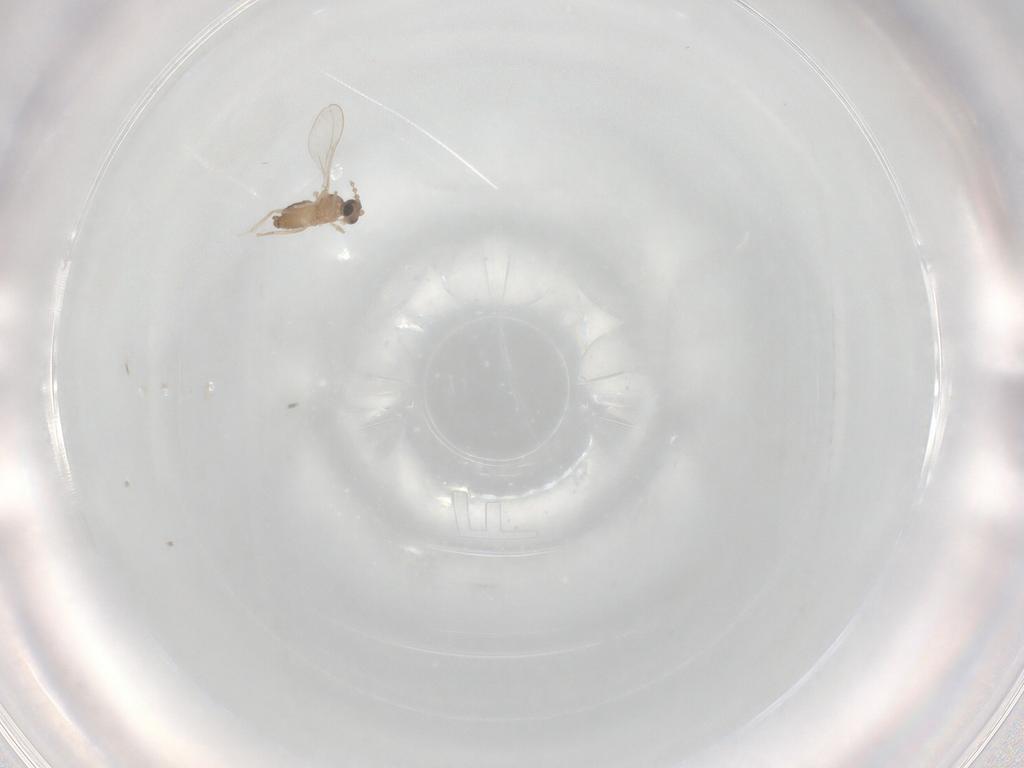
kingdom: Animalia
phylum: Arthropoda
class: Insecta
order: Diptera
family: Cecidomyiidae
